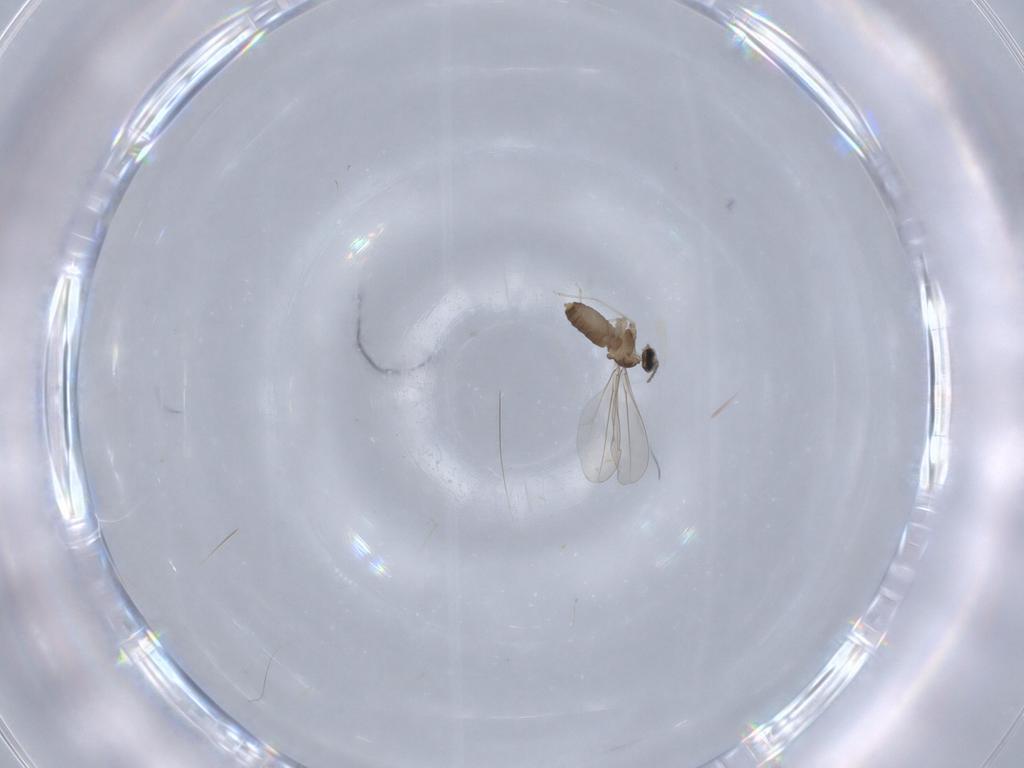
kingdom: Animalia
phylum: Arthropoda
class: Insecta
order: Diptera
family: Cecidomyiidae
